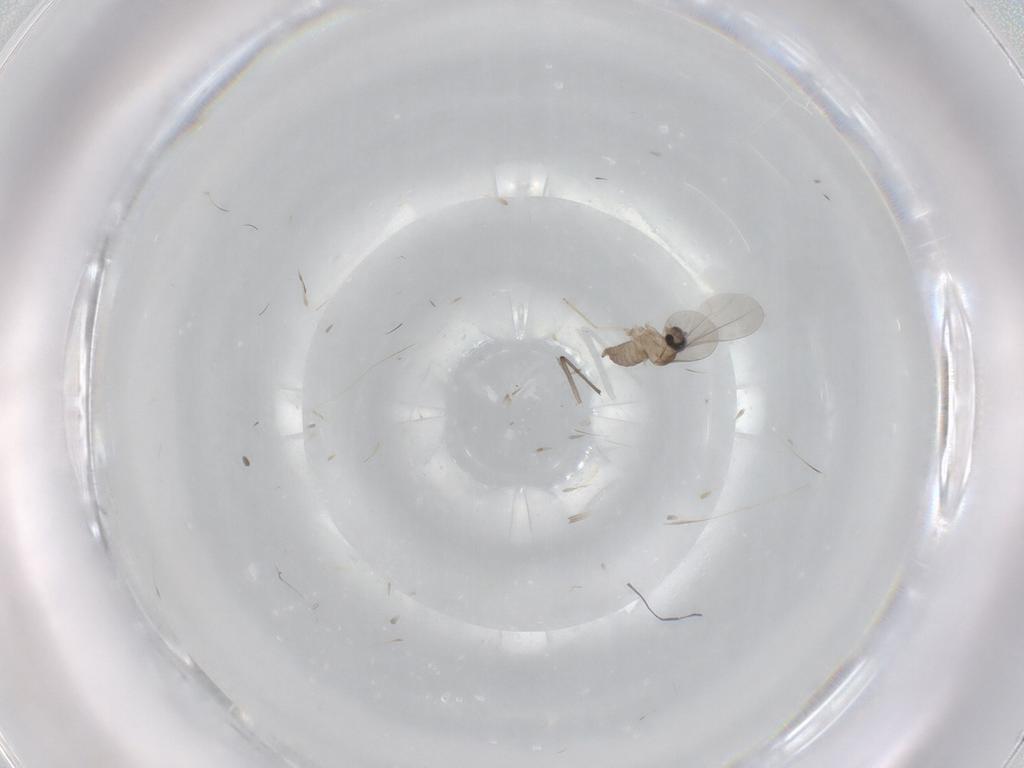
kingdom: Animalia
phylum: Arthropoda
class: Insecta
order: Diptera
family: Cecidomyiidae
